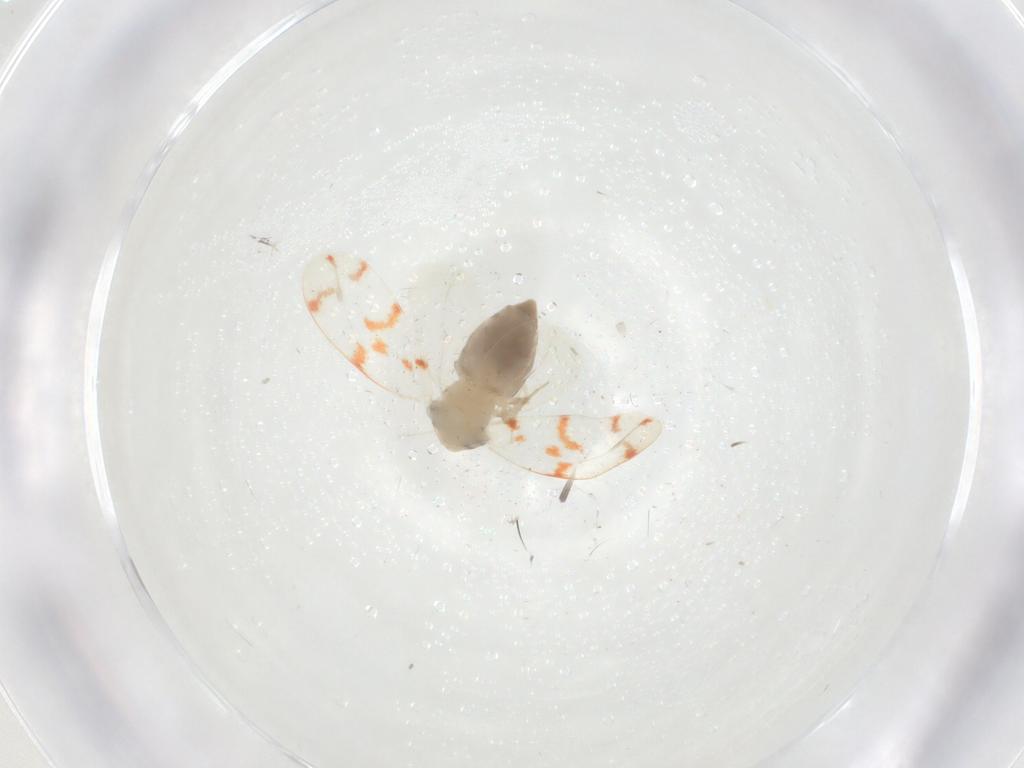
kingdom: Animalia
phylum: Arthropoda
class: Insecta
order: Hemiptera
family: Aleyrodidae
